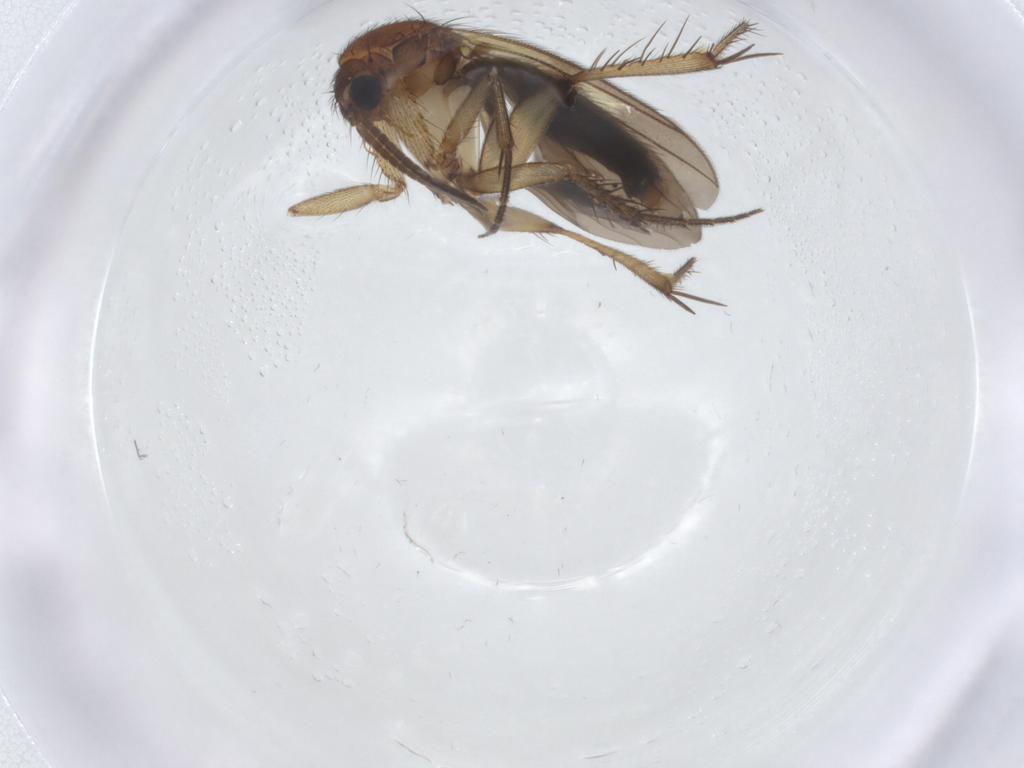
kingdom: Animalia
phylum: Arthropoda
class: Insecta
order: Diptera
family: Mycetophilidae
